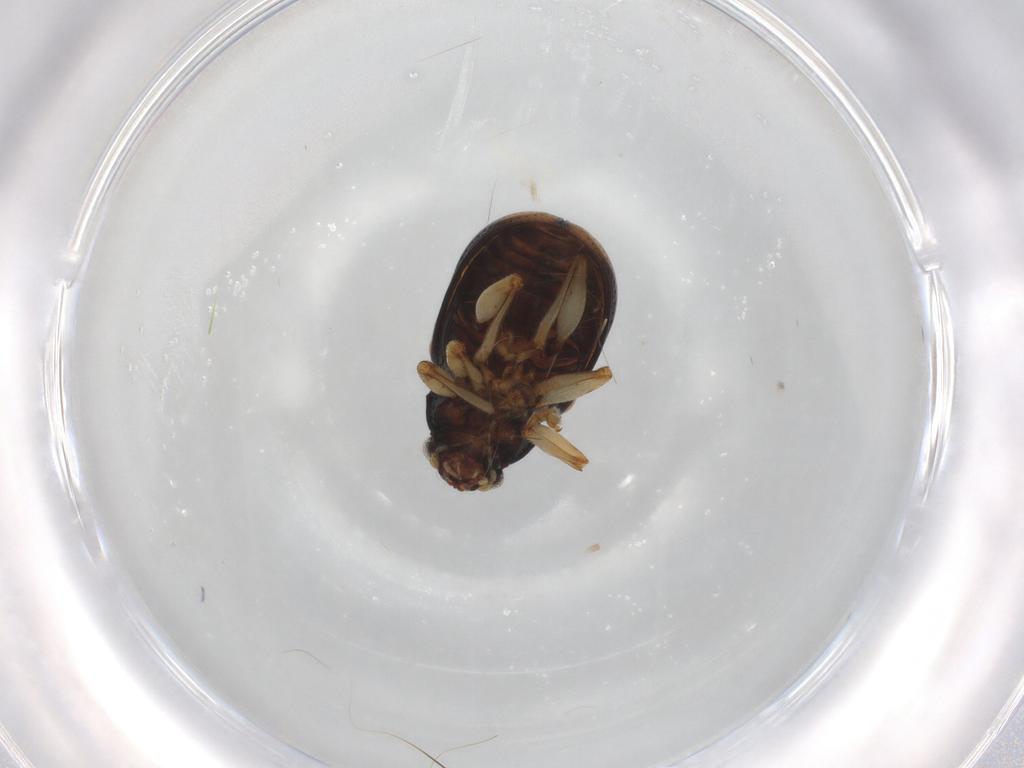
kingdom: Animalia
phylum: Arthropoda
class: Insecta
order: Coleoptera
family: Chrysomelidae
